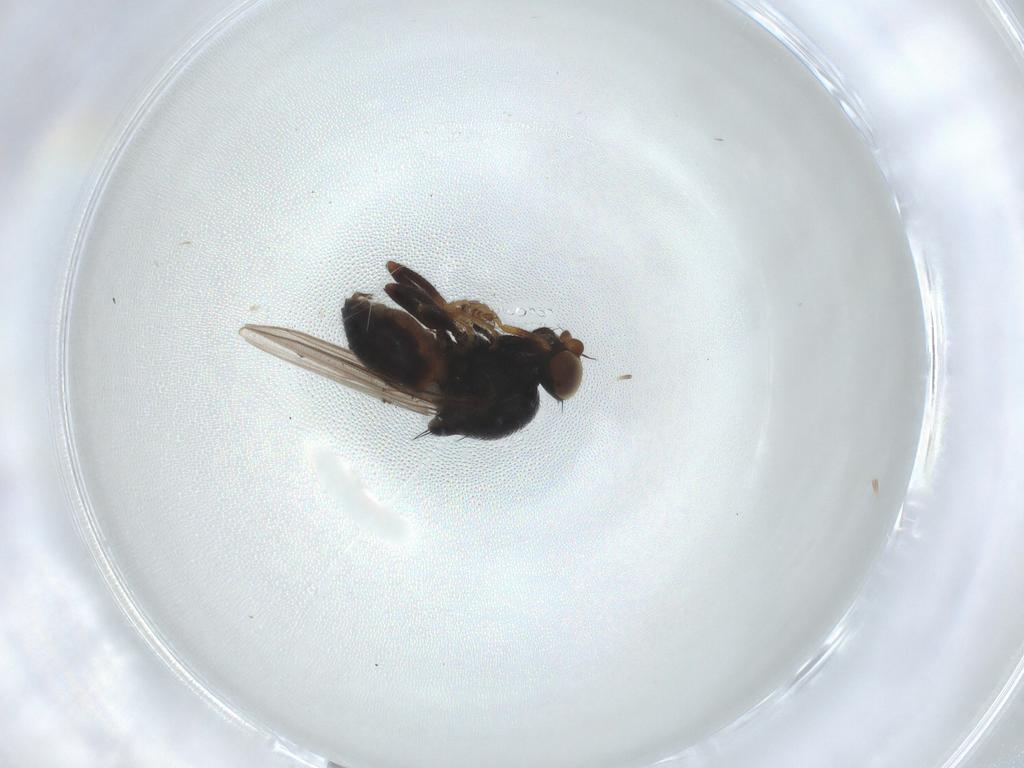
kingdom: Animalia
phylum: Arthropoda
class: Insecta
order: Diptera
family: Chloropidae
